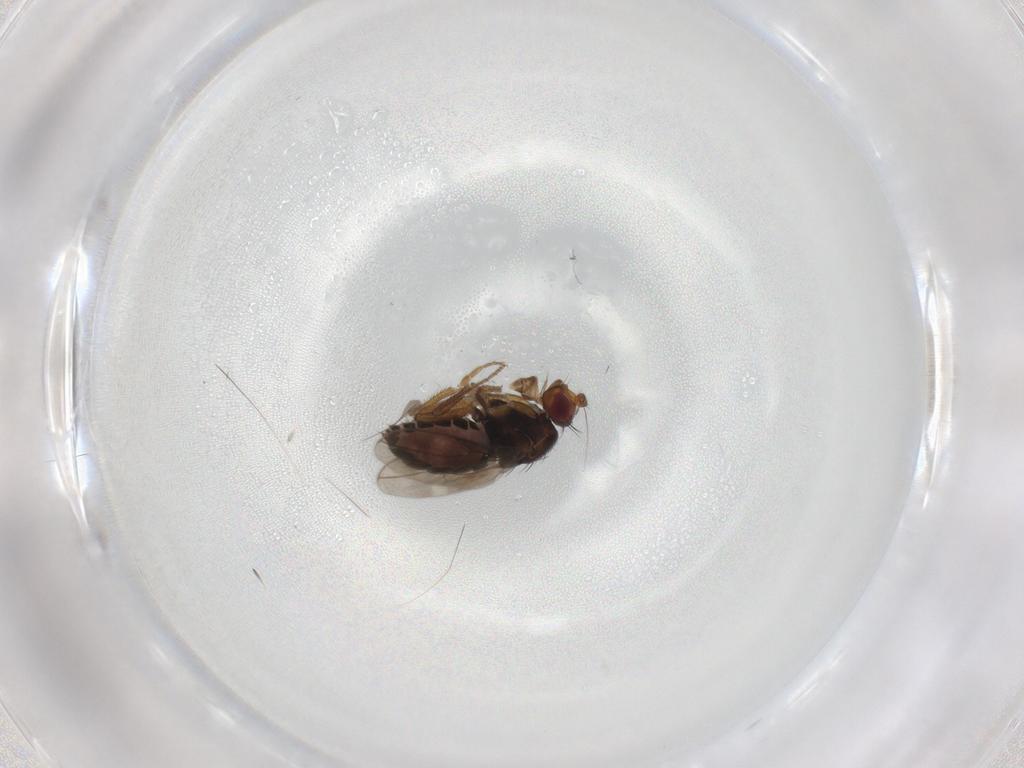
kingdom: Animalia
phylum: Arthropoda
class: Insecta
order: Diptera
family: Sphaeroceridae
